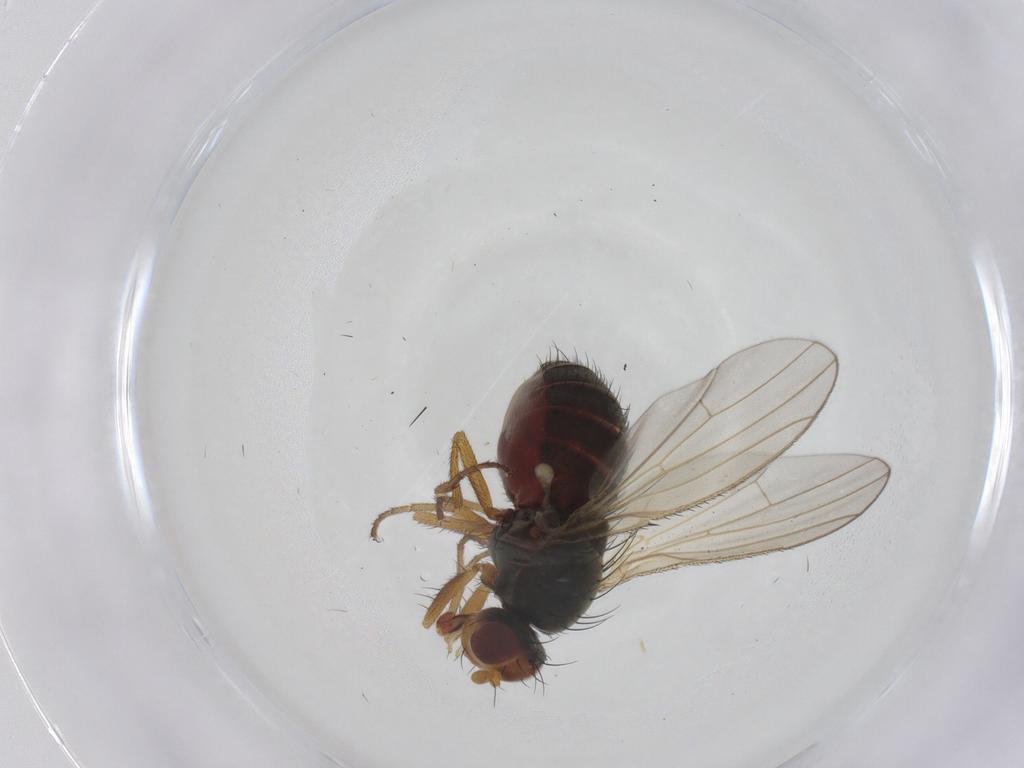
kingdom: Animalia
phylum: Arthropoda
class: Insecta
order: Diptera
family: Heleomyzidae
